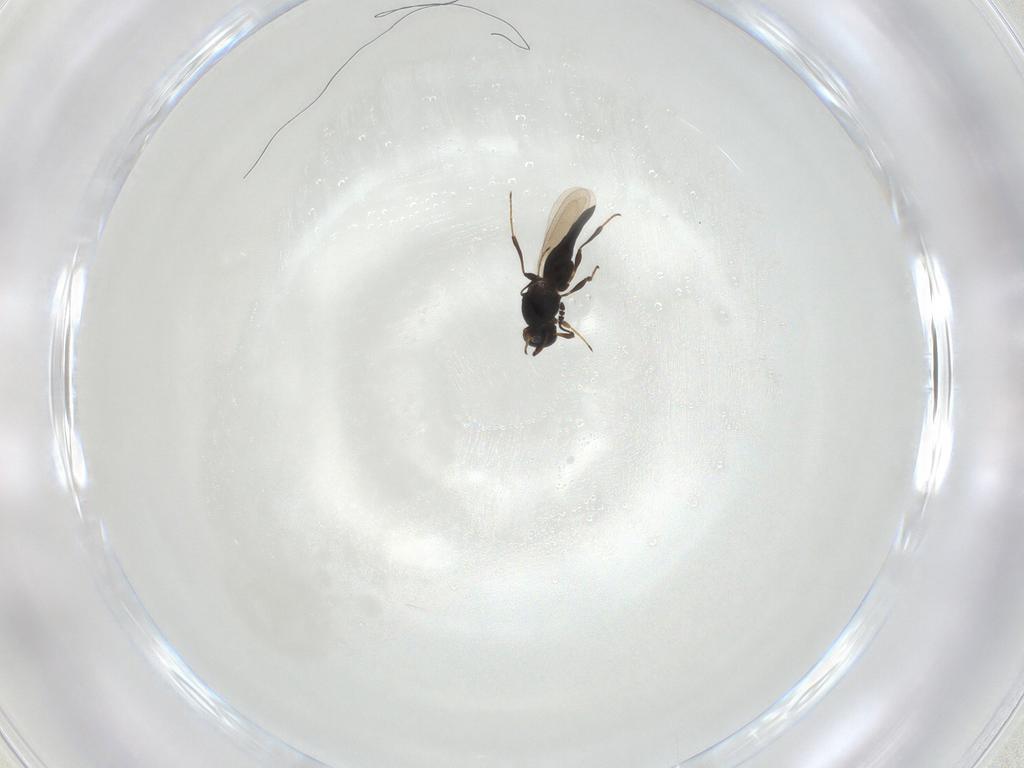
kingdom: Animalia
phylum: Arthropoda
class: Insecta
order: Hymenoptera
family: Platygastridae
